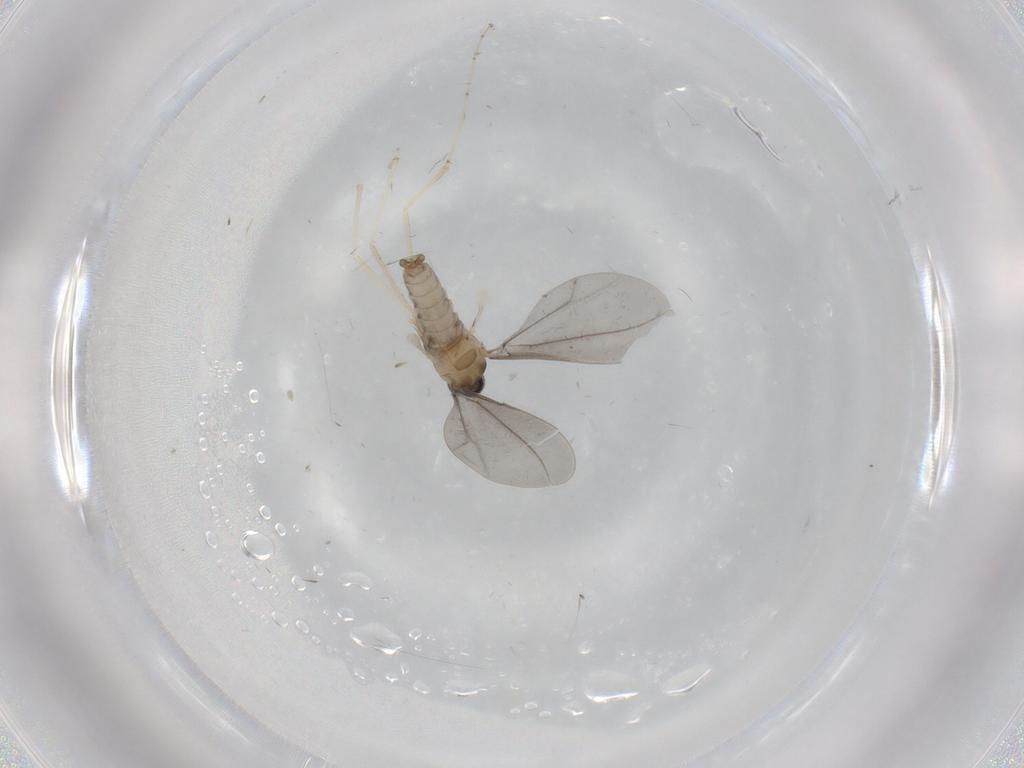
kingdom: Animalia
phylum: Arthropoda
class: Insecta
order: Diptera
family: Cecidomyiidae
